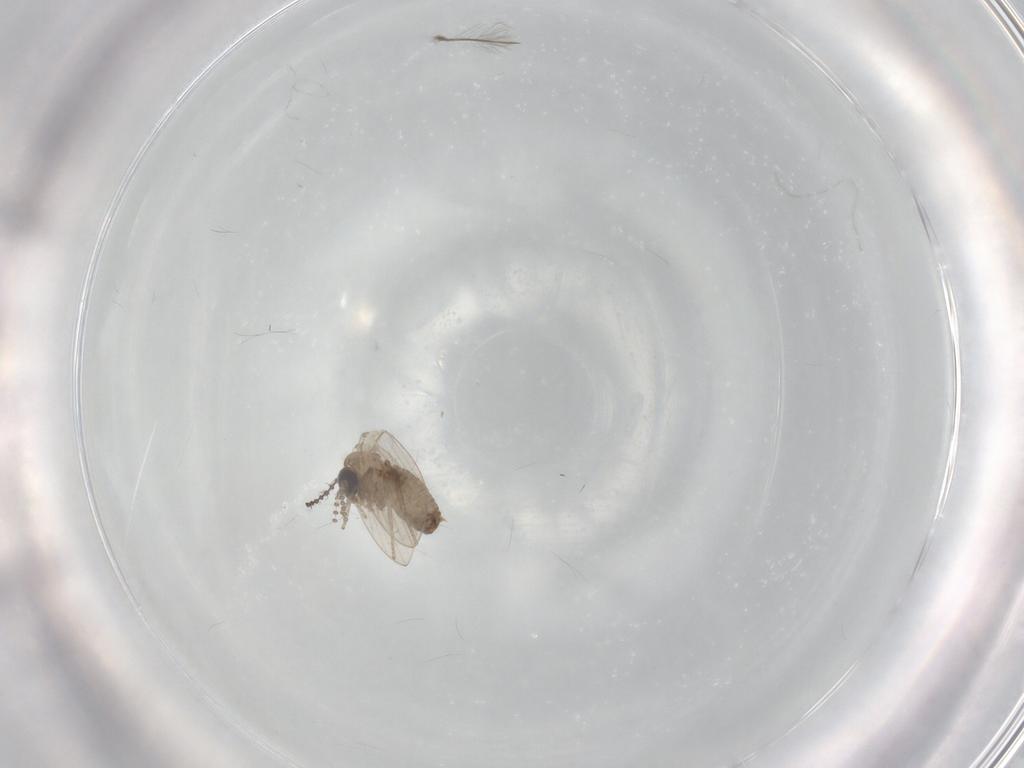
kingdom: Animalia
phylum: Arthropoda
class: Insecta
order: Diptera
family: Psychodidae
